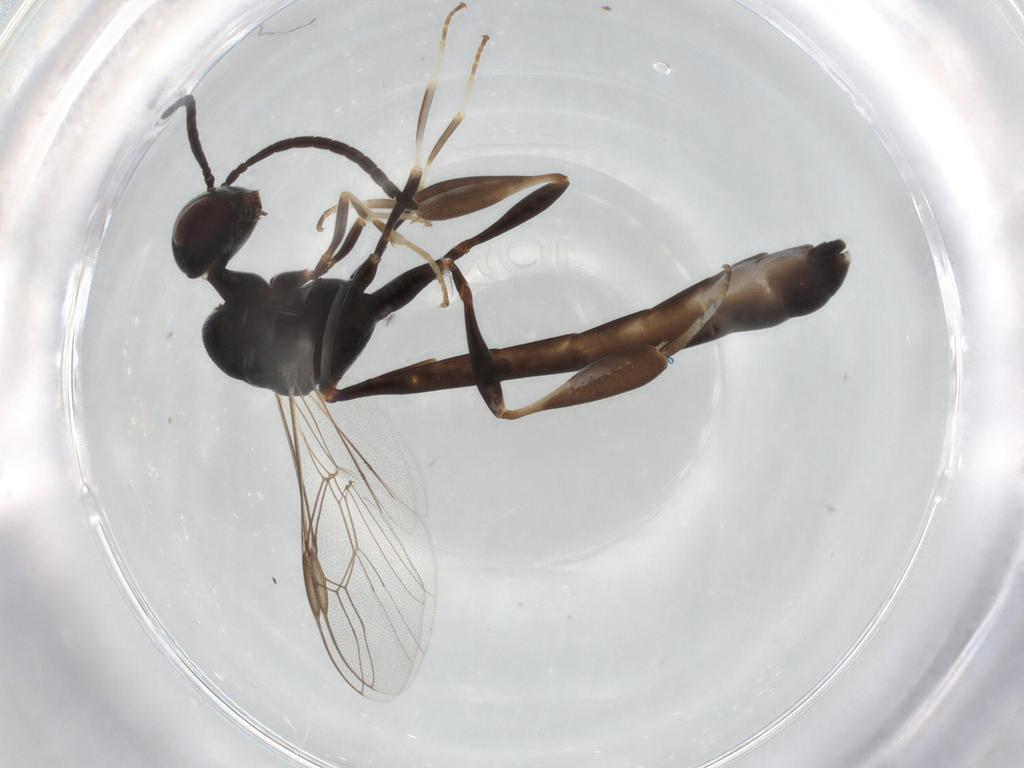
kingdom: Animalia
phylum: Arthropoda
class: Insecta
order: Hymenoptera
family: Gasteruptiidae
